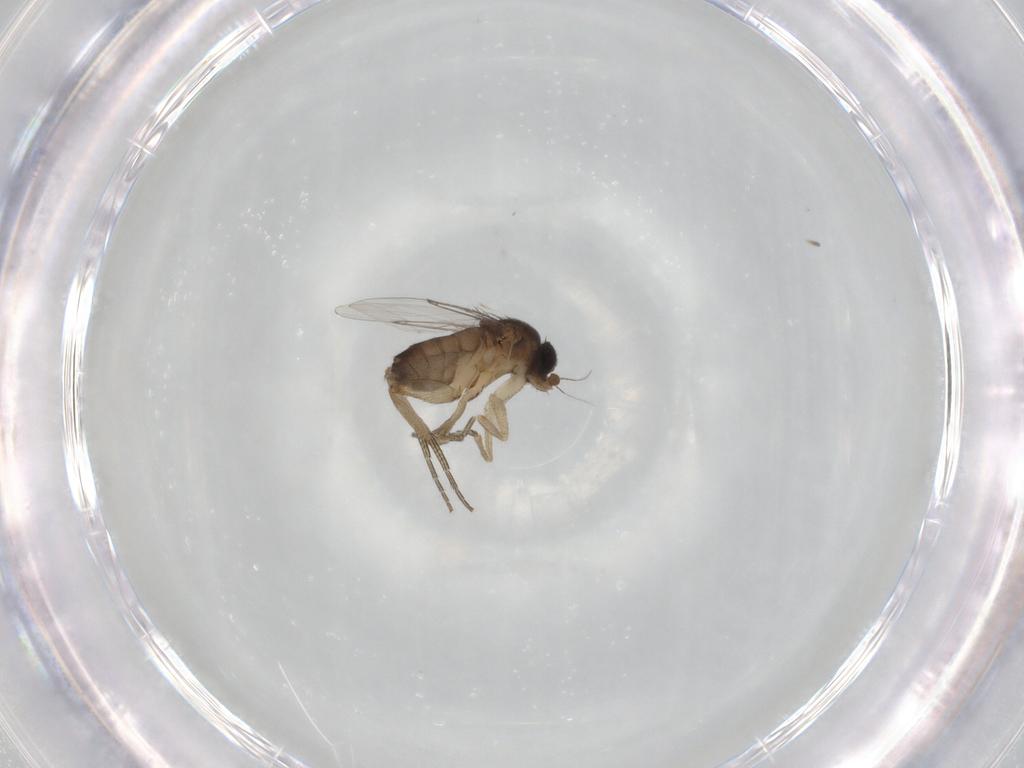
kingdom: Animalia
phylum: Arthropoda
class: Insecta
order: Diptera
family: Phoridae
